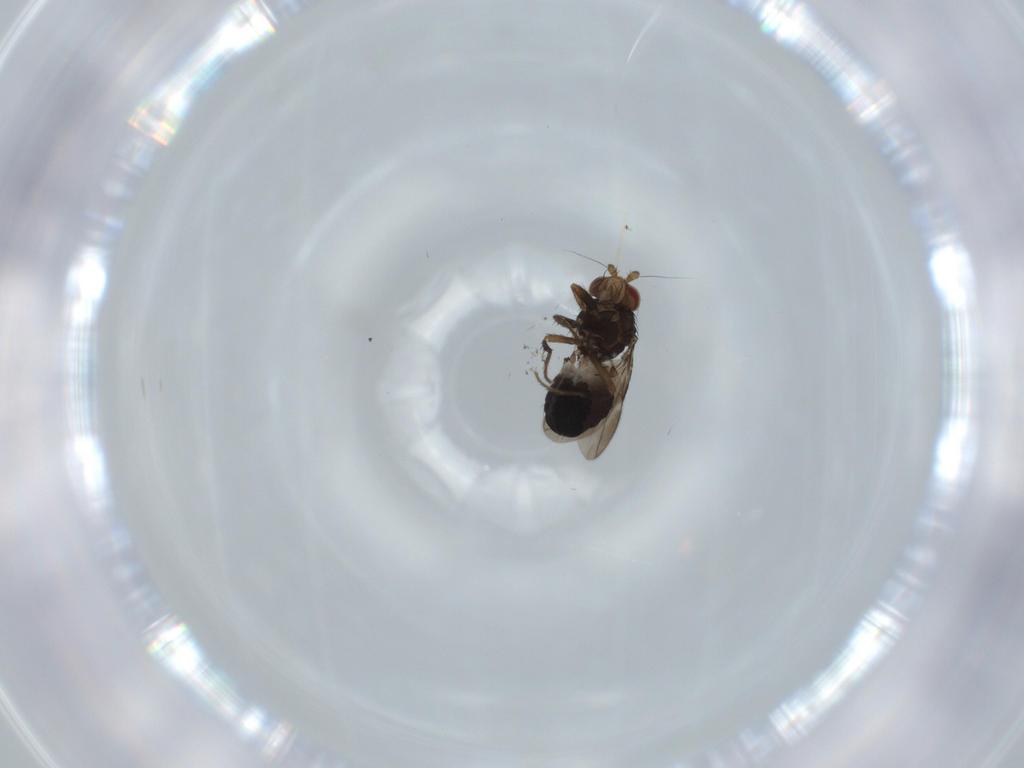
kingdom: Animalia
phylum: Arthropoda
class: Insecta
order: Diptera
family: Sphaeroceridae
